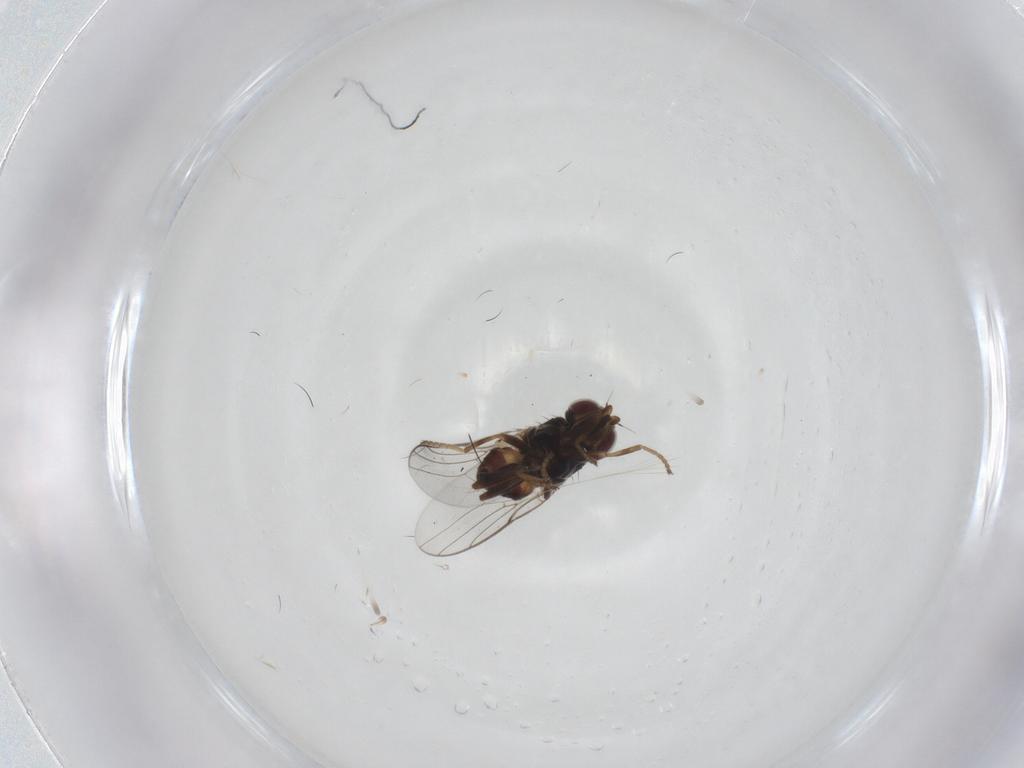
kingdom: Animalia
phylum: Arthropoda
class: Insecta
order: Diptera
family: Chloropidae
